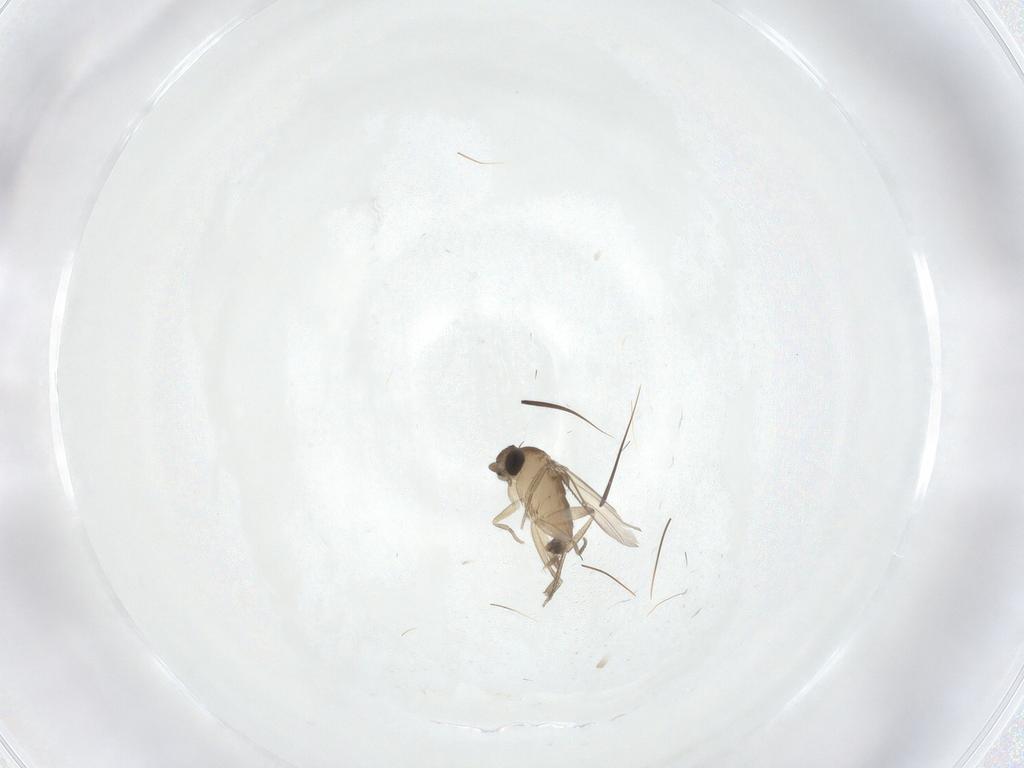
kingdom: Animalia
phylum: Arthropoda
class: Insecta
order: Diptera
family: Phoridae
